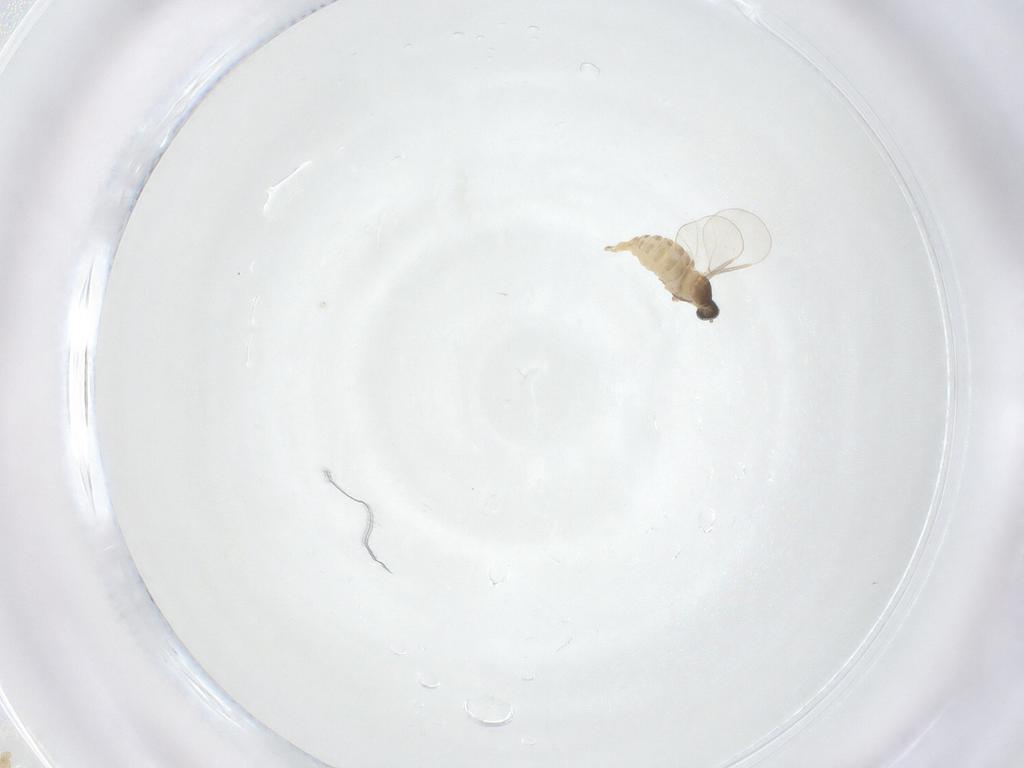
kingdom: Animalia
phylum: Arthropoda
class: Insecta
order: Diptera
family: Cecidomyiidae
